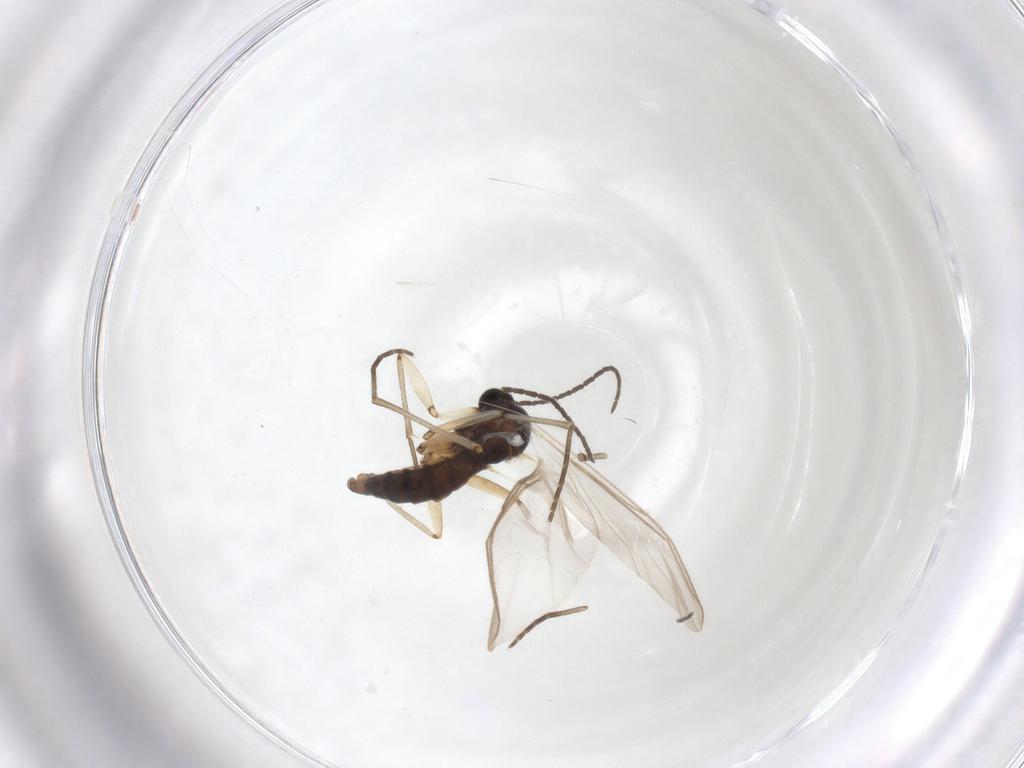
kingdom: Animalia
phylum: Arthropoda
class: Insecta
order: Diptera
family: Sciaridae
